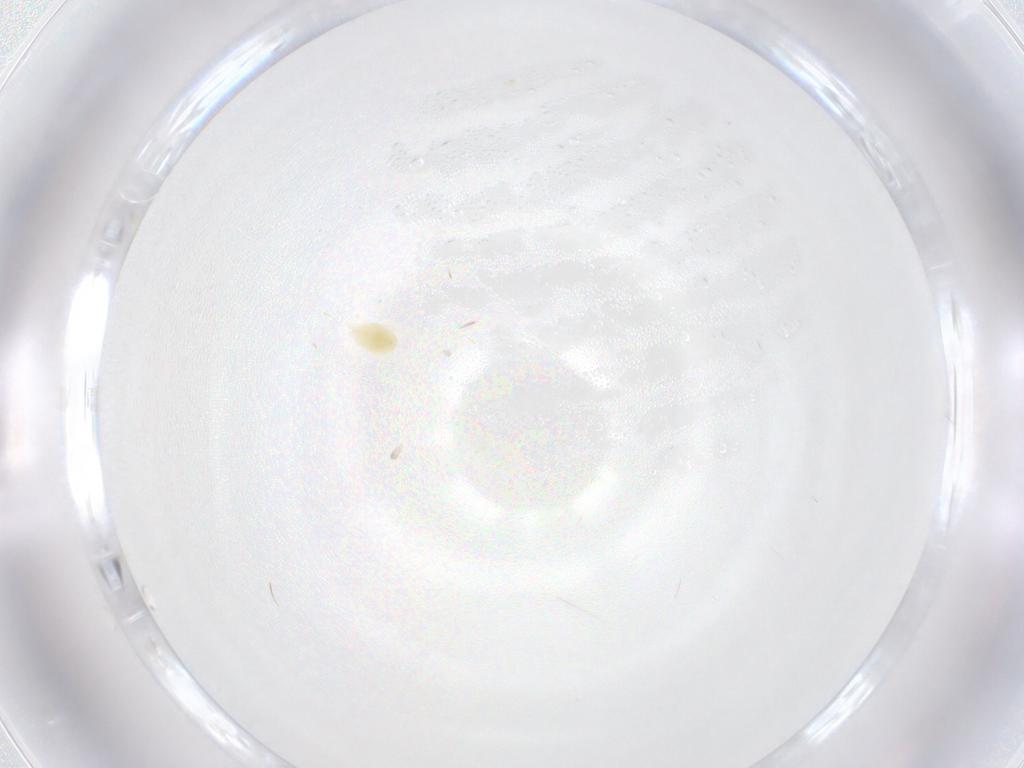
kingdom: Animalia
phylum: Arthropoda
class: Arachnida
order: Trombidiformes
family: Tetranychidae
